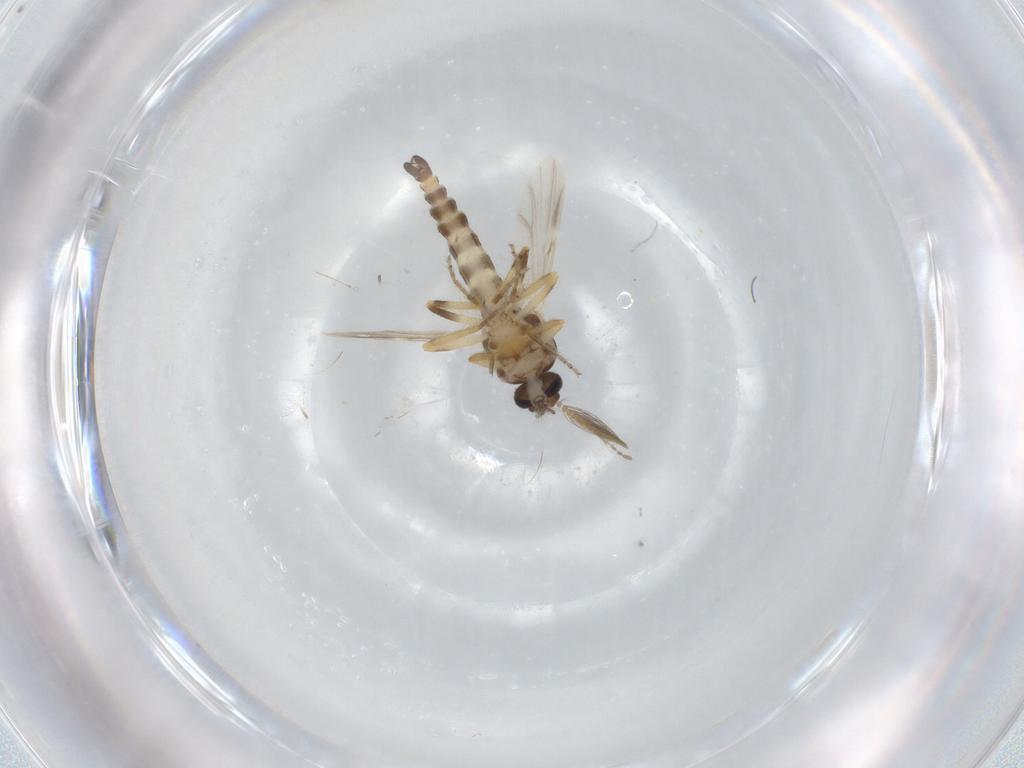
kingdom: Animalia
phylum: Arthropoda
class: Insecta
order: Diptera
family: Ceratopogonidae
